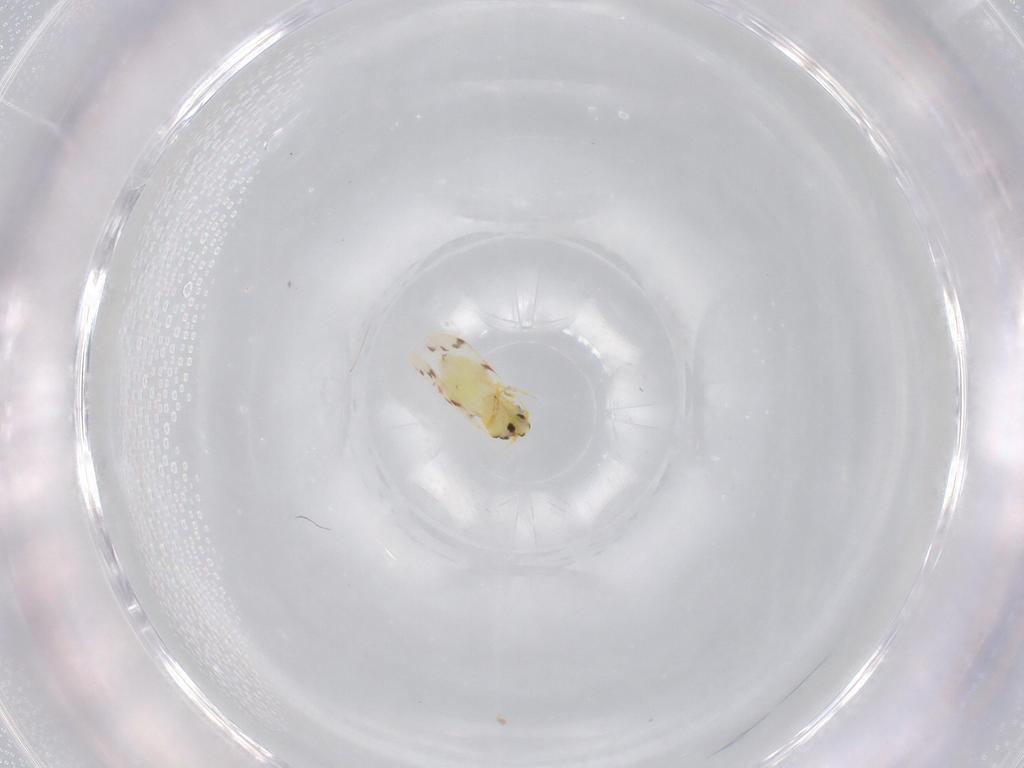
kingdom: Animalia
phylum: Arthropoda
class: Insecta
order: Hemiptera
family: Aleyrodidae
